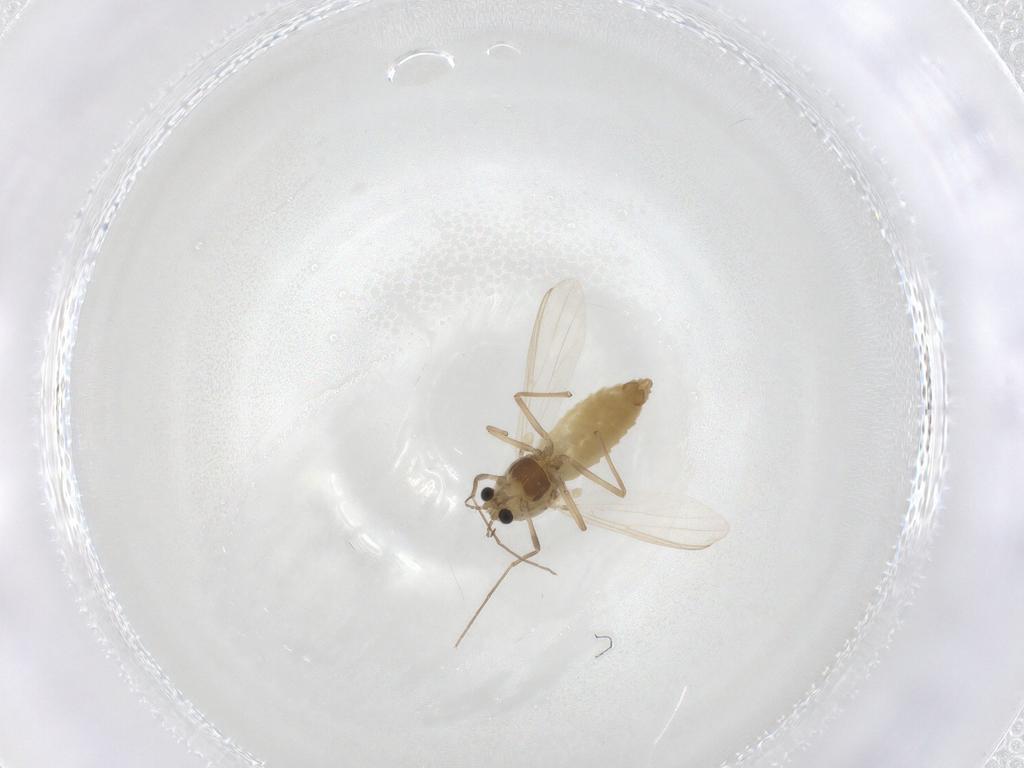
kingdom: Animalia
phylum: Arthropoda
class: Insecta
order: Diptera
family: Chironomidae
